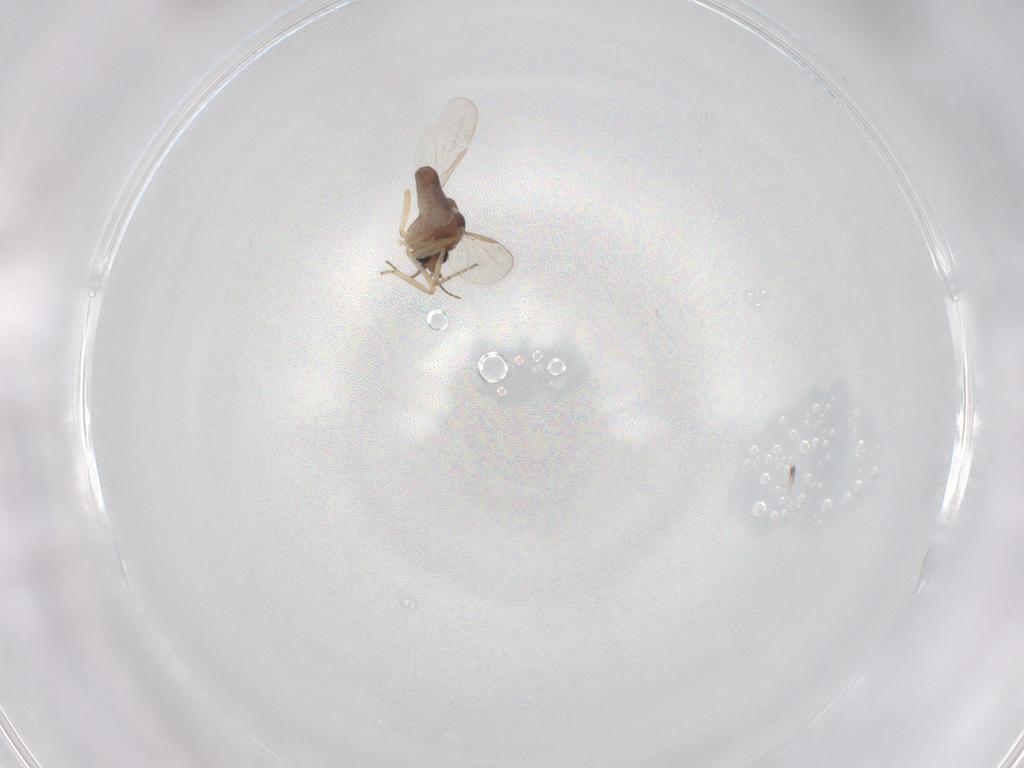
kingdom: Animalia
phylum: Arthropoda
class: Insecta
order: Diptera
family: Ceratopogonidae
